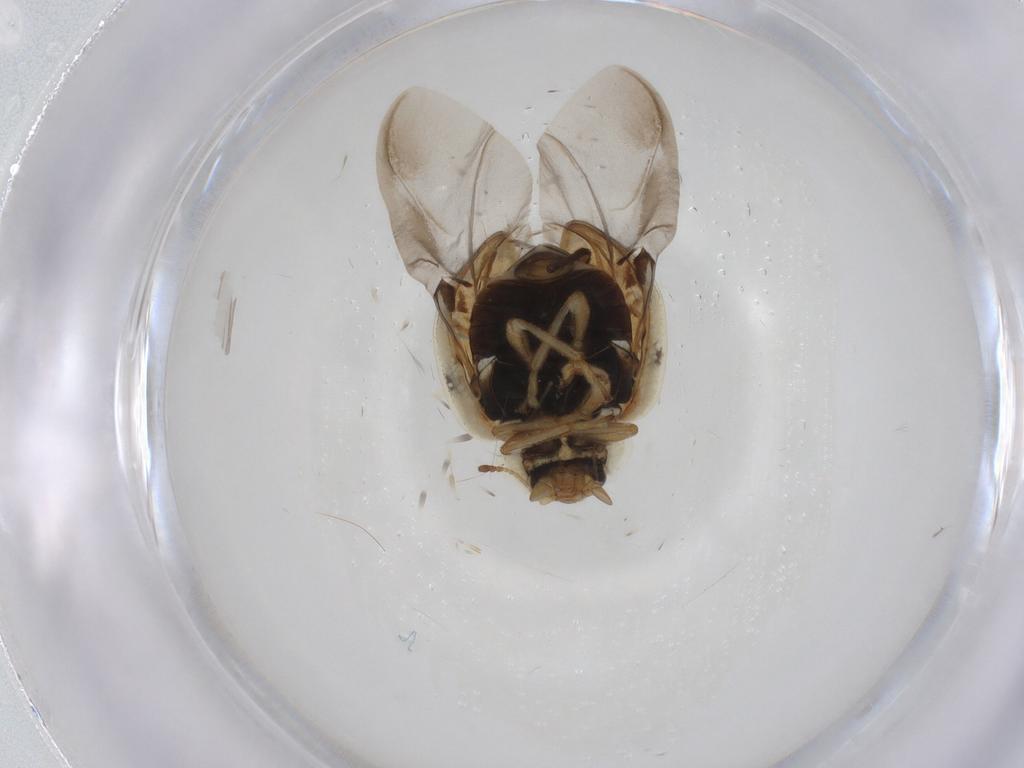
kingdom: Animalia
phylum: Arthropoda
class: Insecta
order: Coleoptera
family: Coccinellidae
